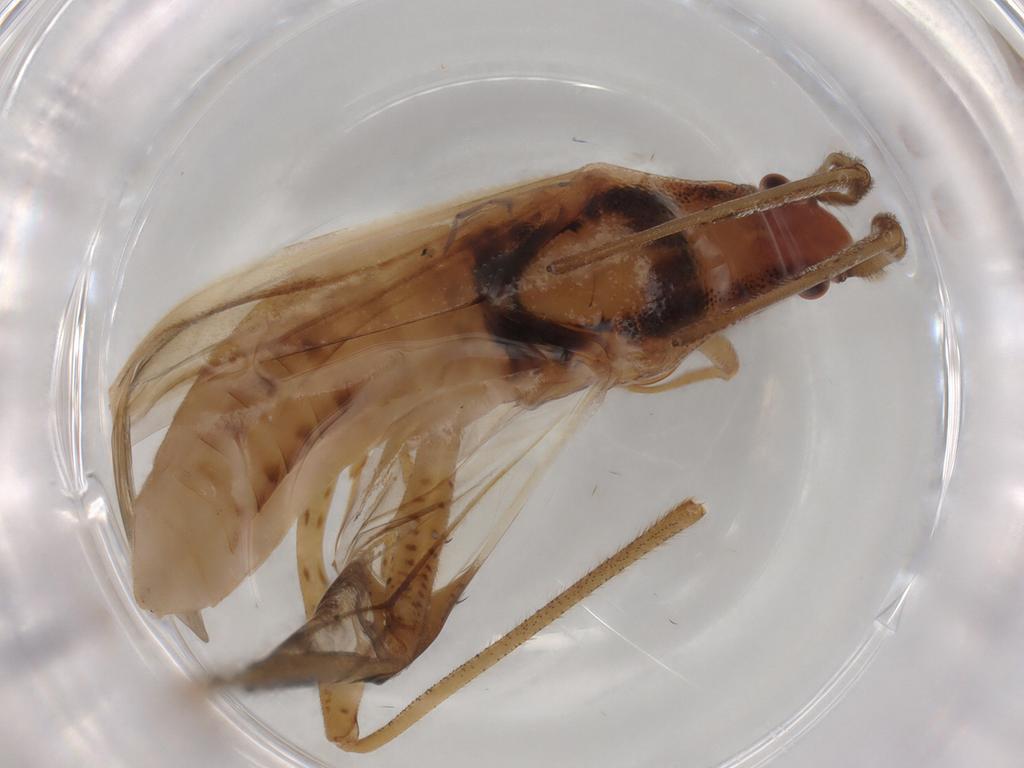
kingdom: Animalia
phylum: Arthropoda
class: Insecta
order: Hemiptera
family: Miridae
